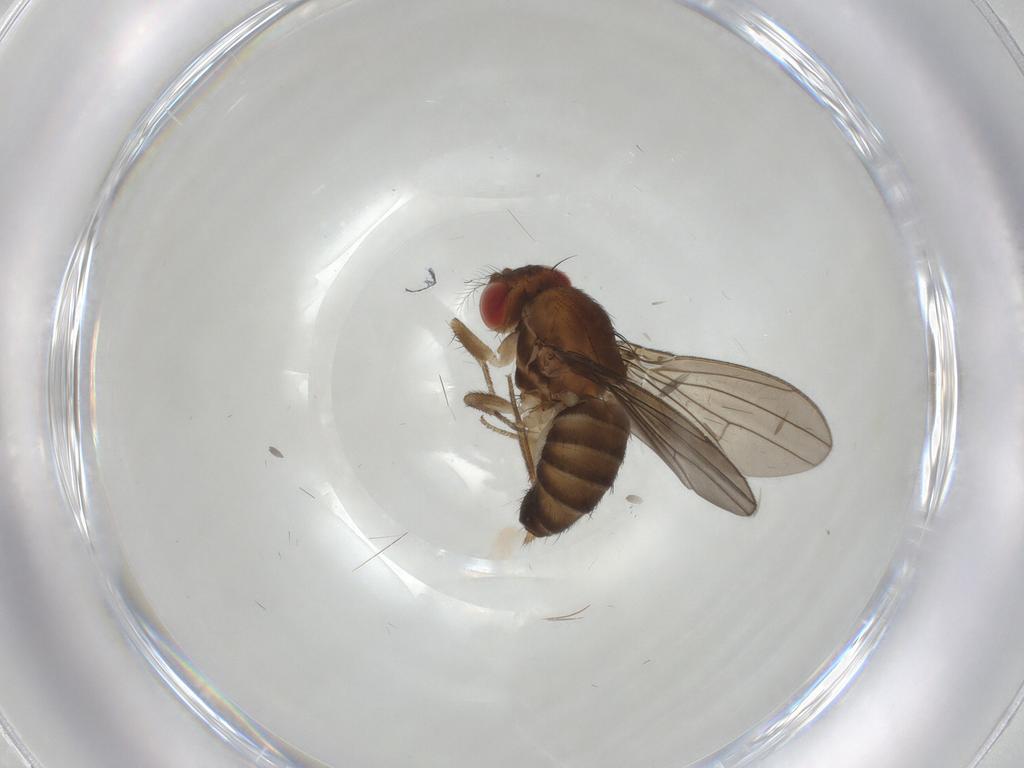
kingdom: Animalia
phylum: Arthropoda
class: Insecta
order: Diptera
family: Drosophilidae
